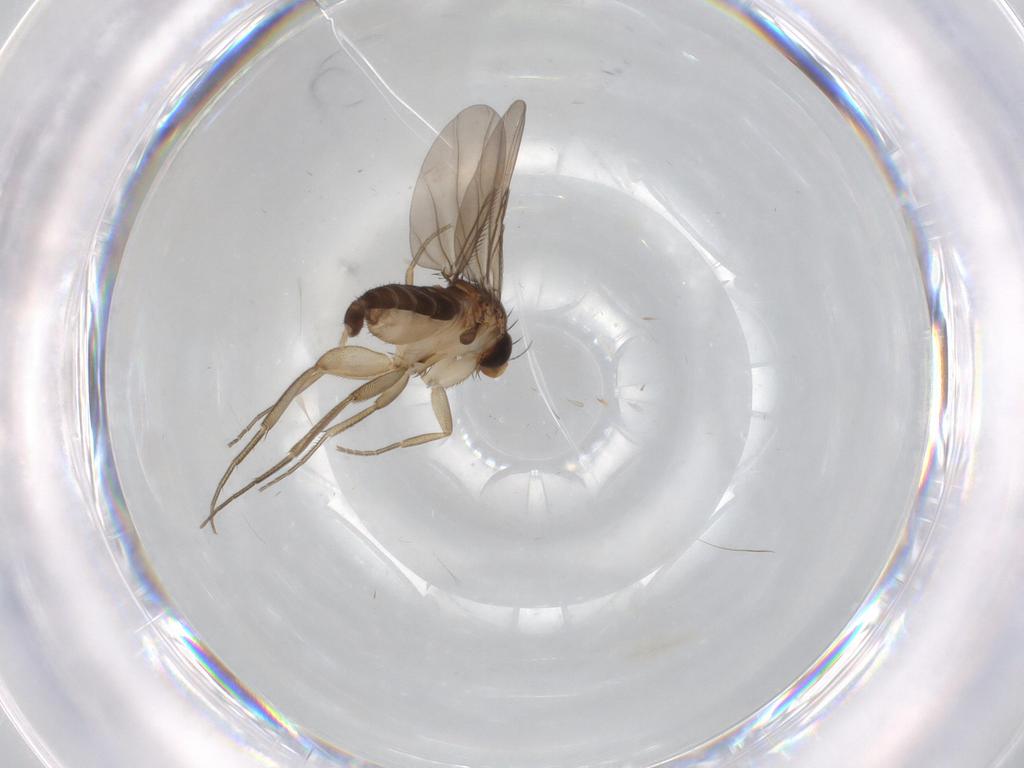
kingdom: Animalia
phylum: Arthropoda
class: Insecta
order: Diptera
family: Phoridae
